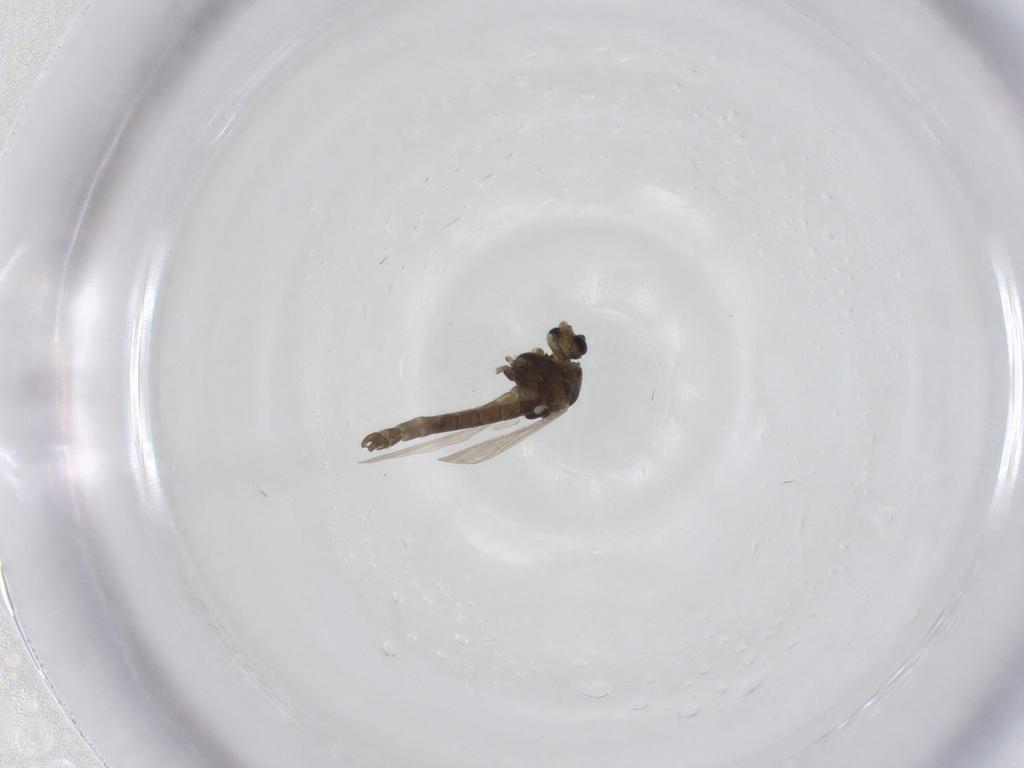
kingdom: Animalia
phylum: Arthropoda
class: Insecta
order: Diptera
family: Chironomidae
